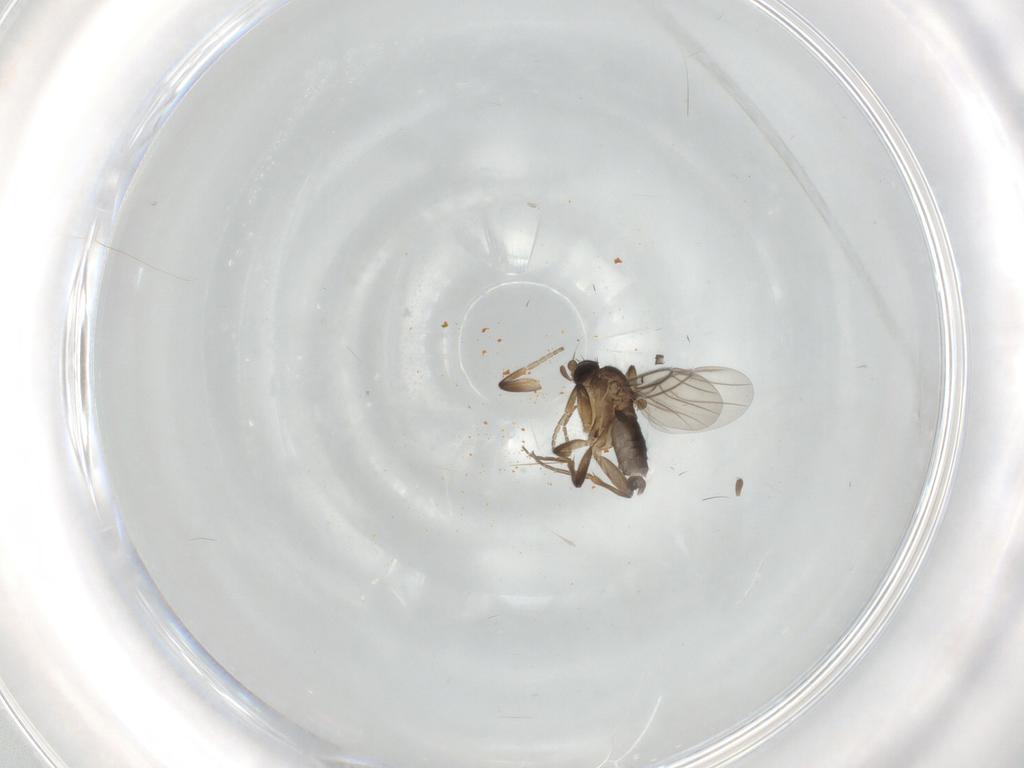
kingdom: Animalia
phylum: Arthropoda
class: Insecta
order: Diptera
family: Phoridae
